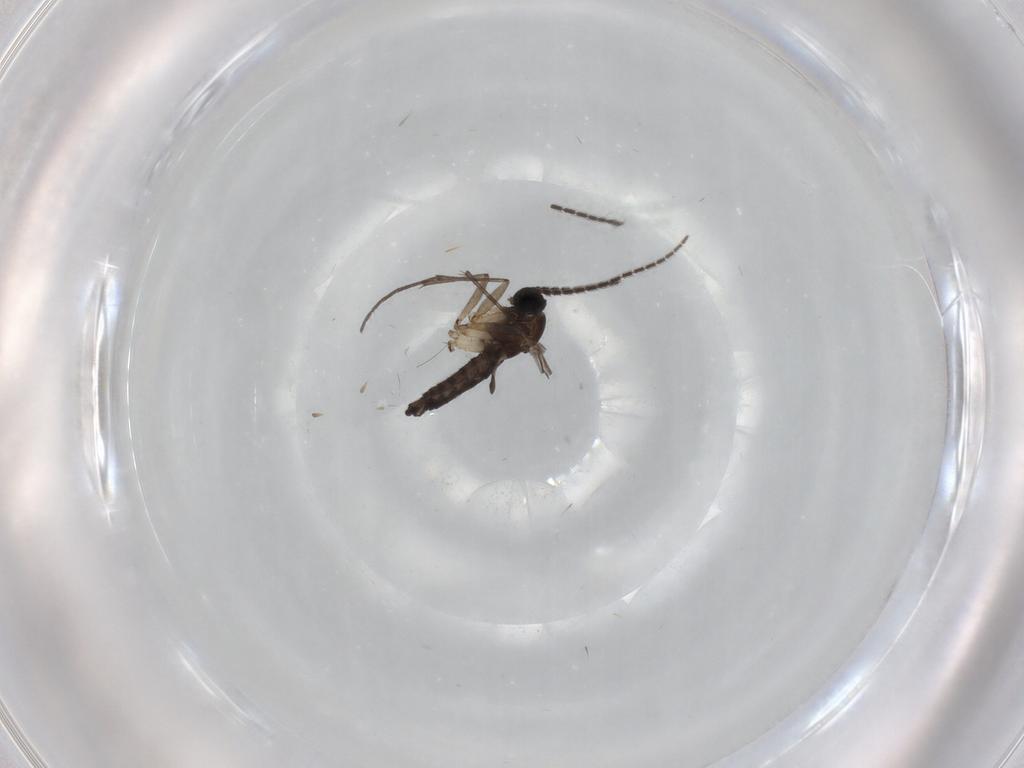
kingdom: Animalia
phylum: Arthropoda
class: Insecta
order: Diptera
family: Sciaridae
